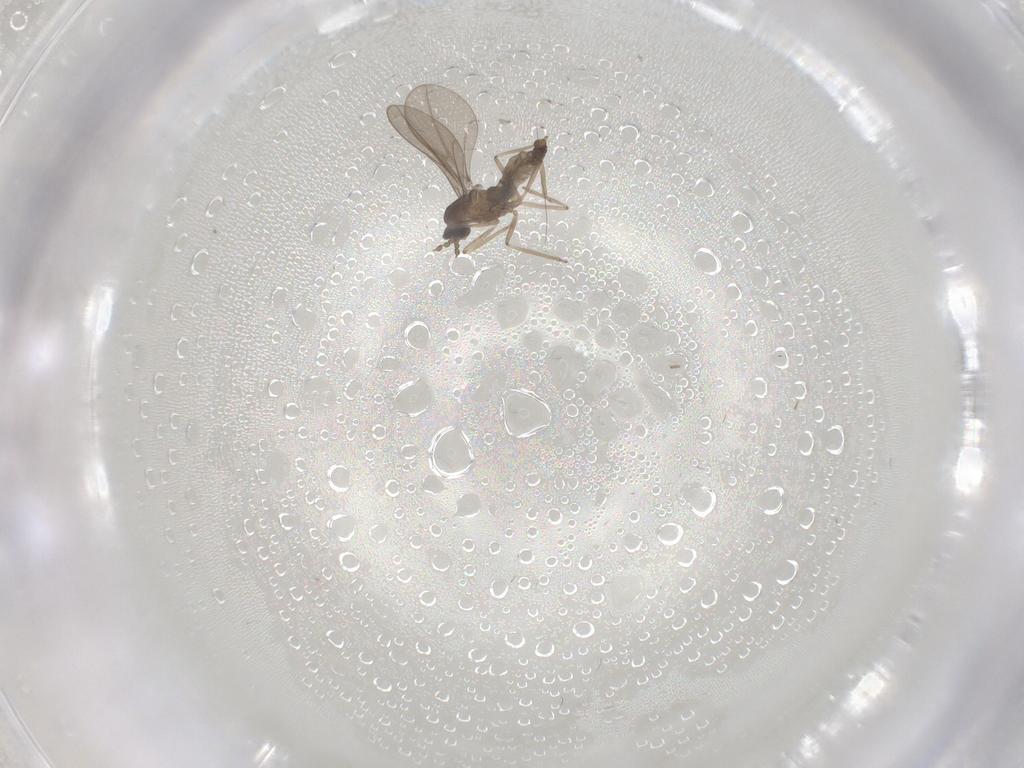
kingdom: Animalia
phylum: Arthropoda
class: Insecta
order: Diptera
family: Cecidomyiidae
